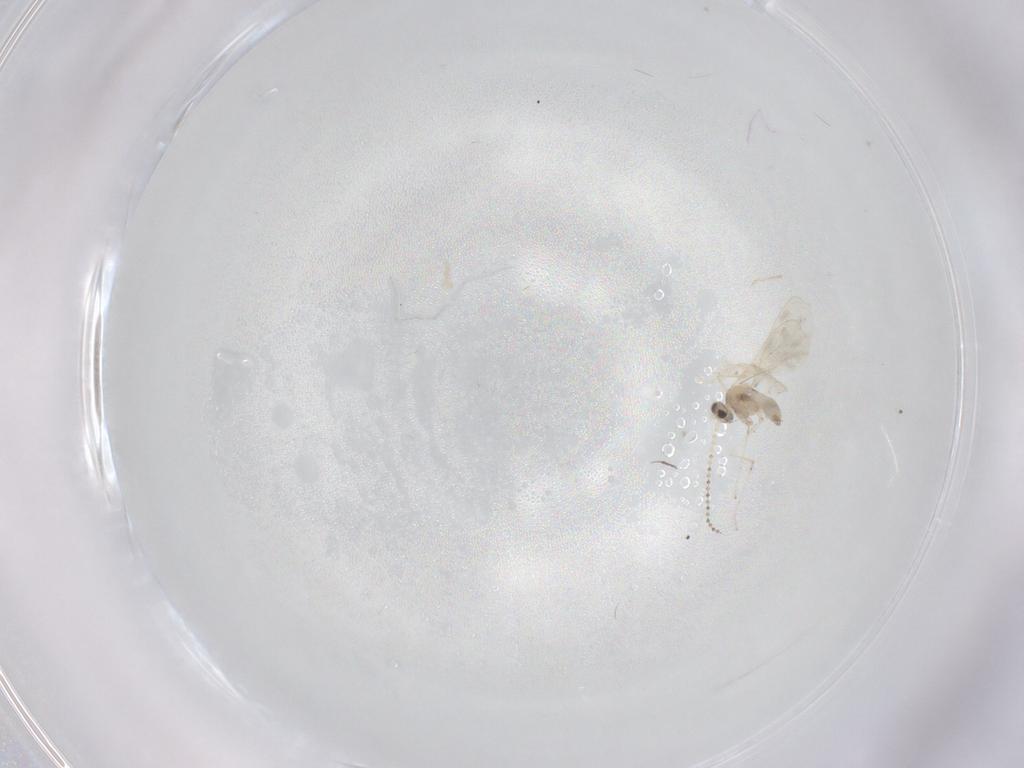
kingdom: Animalia
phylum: Arthropoda
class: Insecta
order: Diptera
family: Cecidomyiidae
